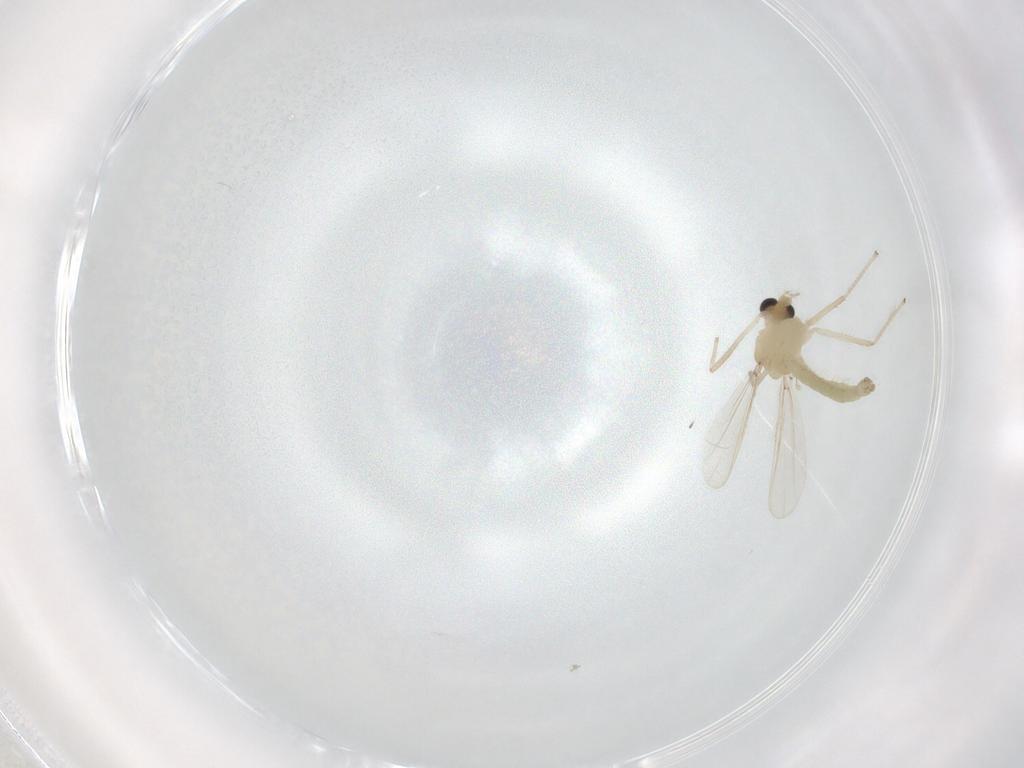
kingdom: Animalia
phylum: Arthropoda
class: Insecta
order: Diptera
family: Chironomidae
